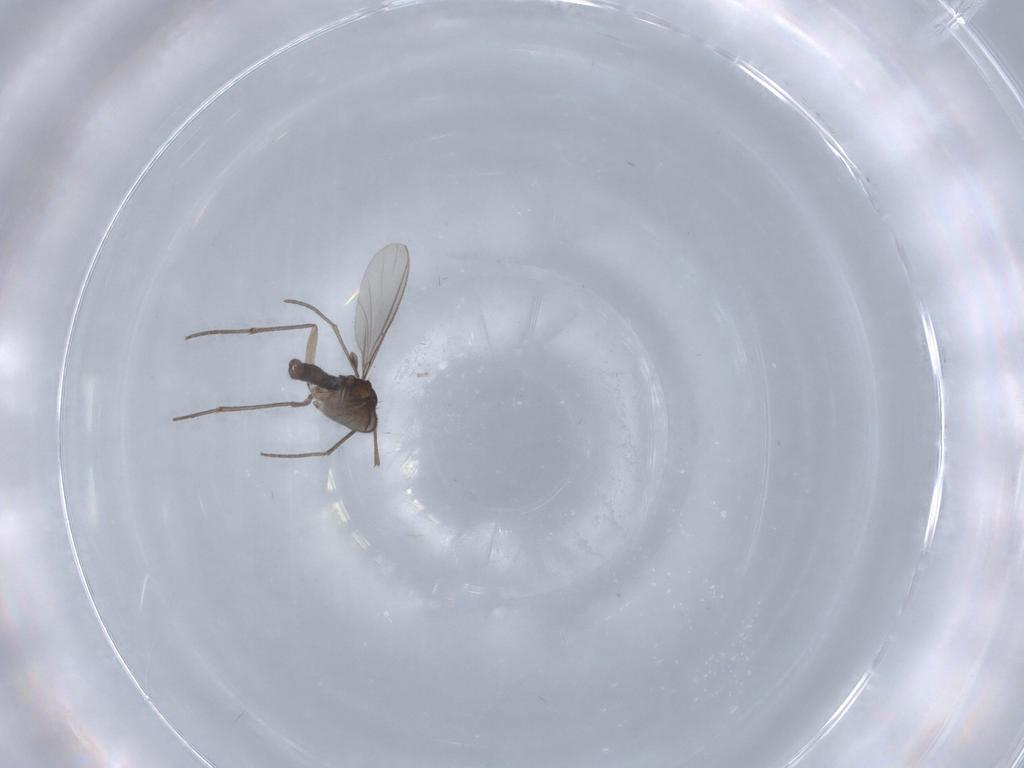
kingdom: Animalia
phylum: Arthropoda
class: Insecta
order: Diptera
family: Sciaridae
